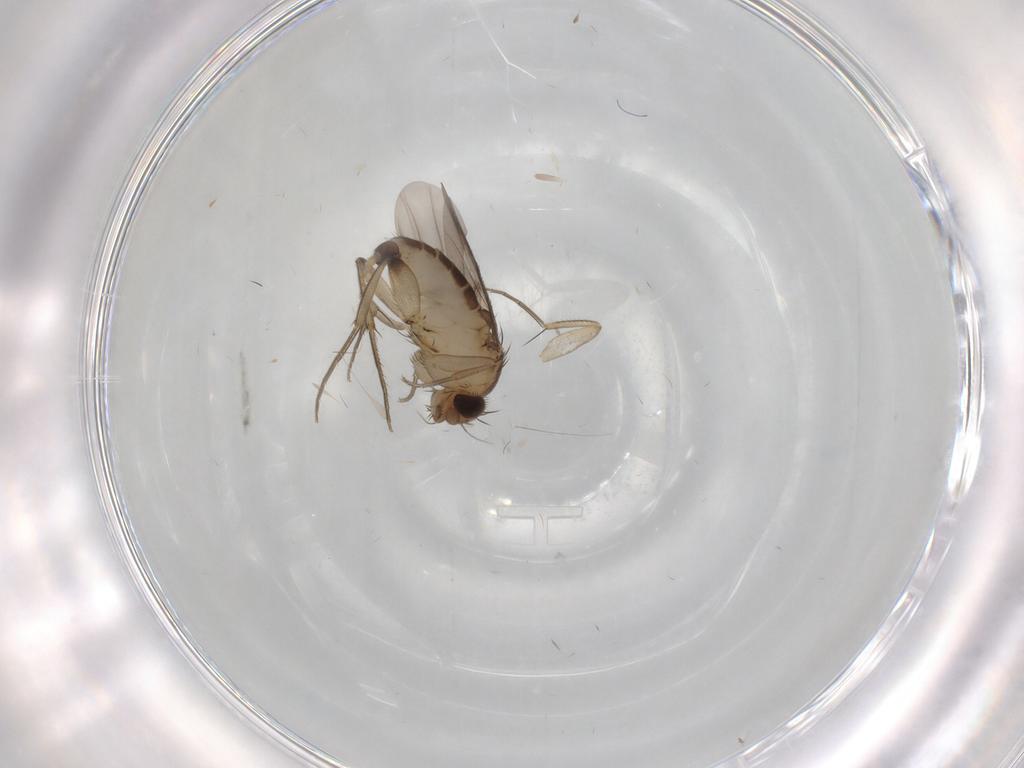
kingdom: Animalia
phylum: Arthropoda
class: Insecta
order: Diptera
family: Phoridae
